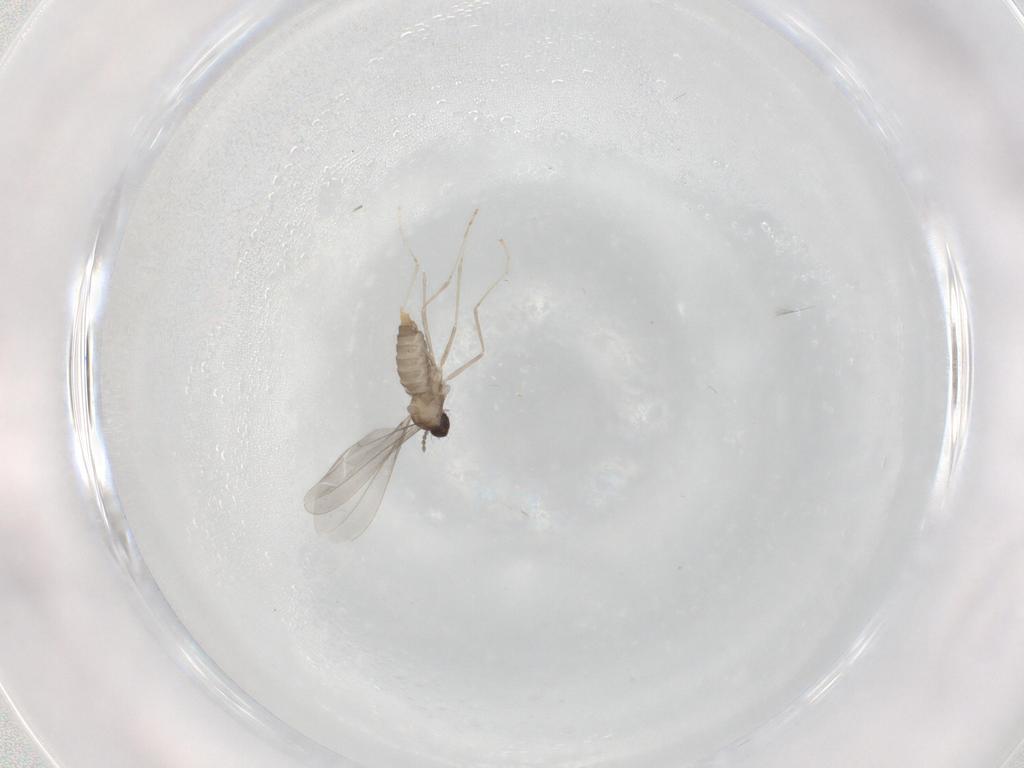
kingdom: Animalia
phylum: Arthropoda
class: Insecta
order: Diptera
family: Cecidomyiidae
